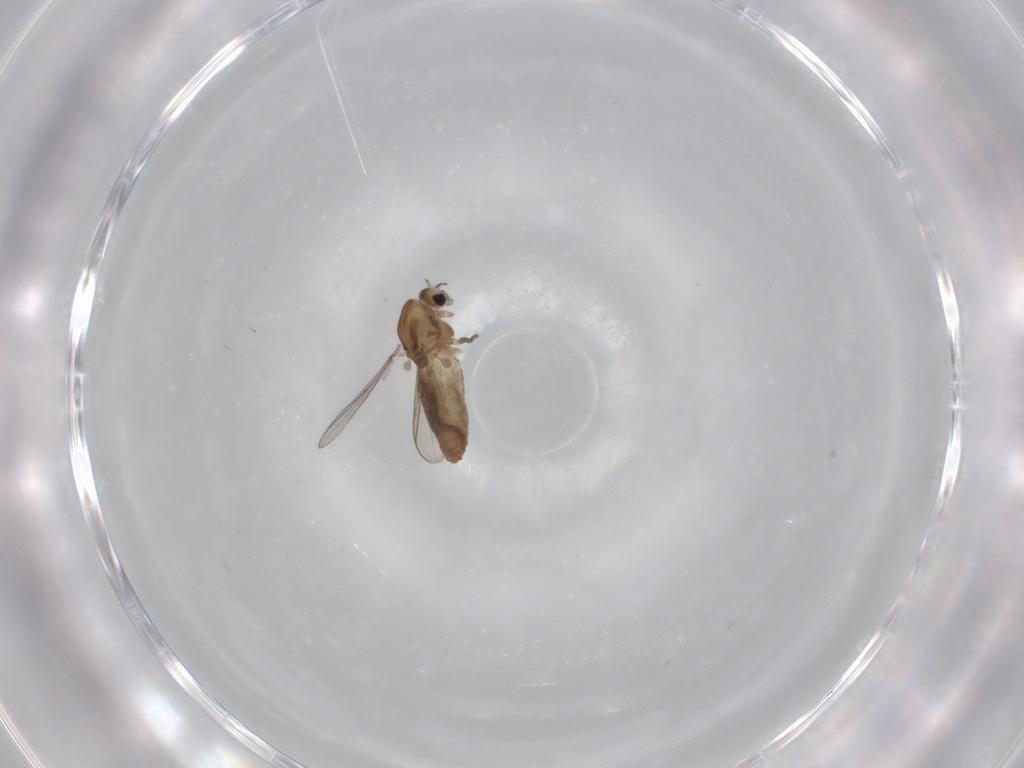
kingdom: Animalia
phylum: Arthropoda
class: Insecta
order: Diptera
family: Chironomidae
